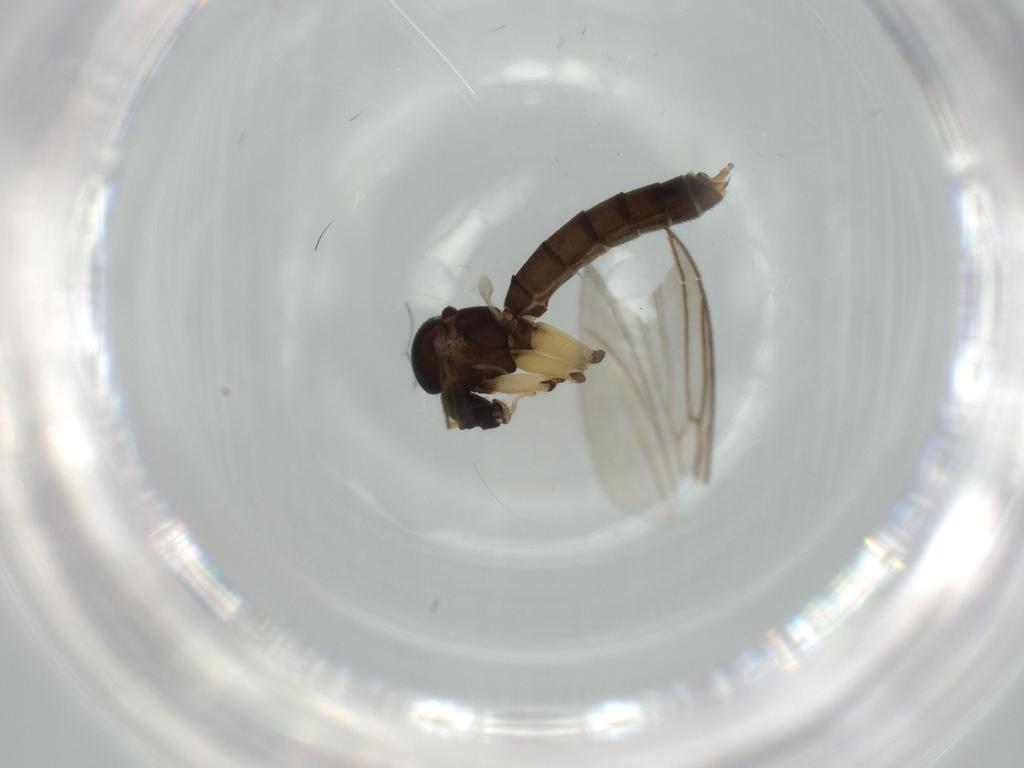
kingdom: Animalia
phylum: Arthropoda
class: Insecta
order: Diptera
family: Phoridae
